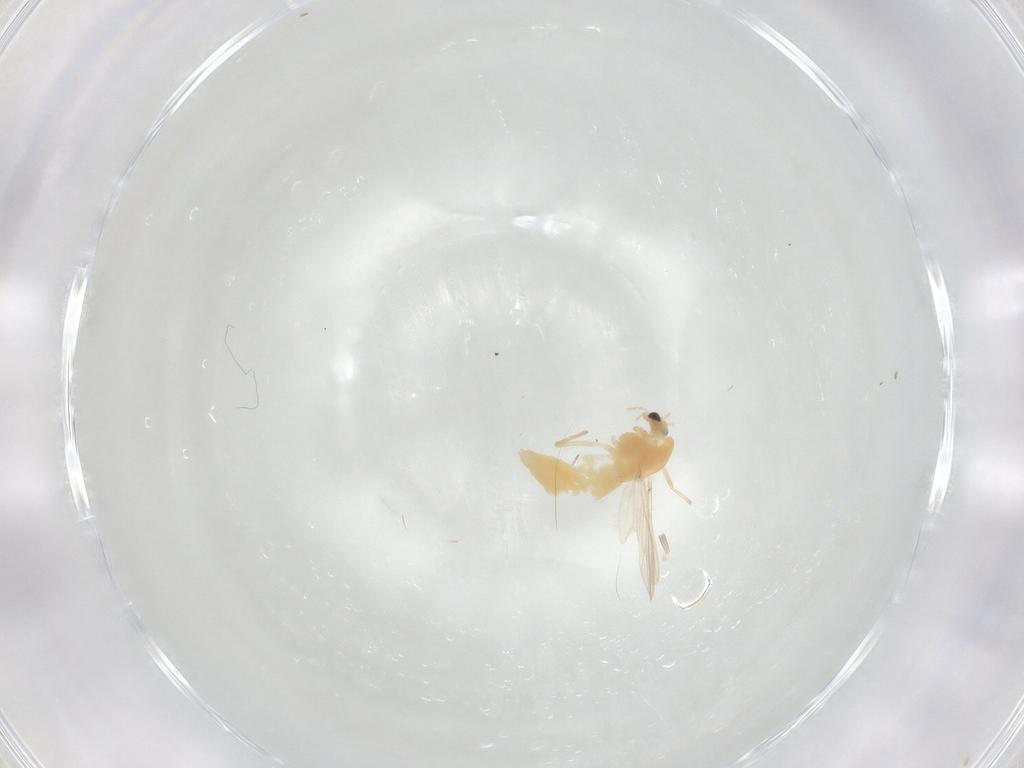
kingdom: Animalia
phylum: Arthropoda
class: Insecta
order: Diptera
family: Chironomidae
